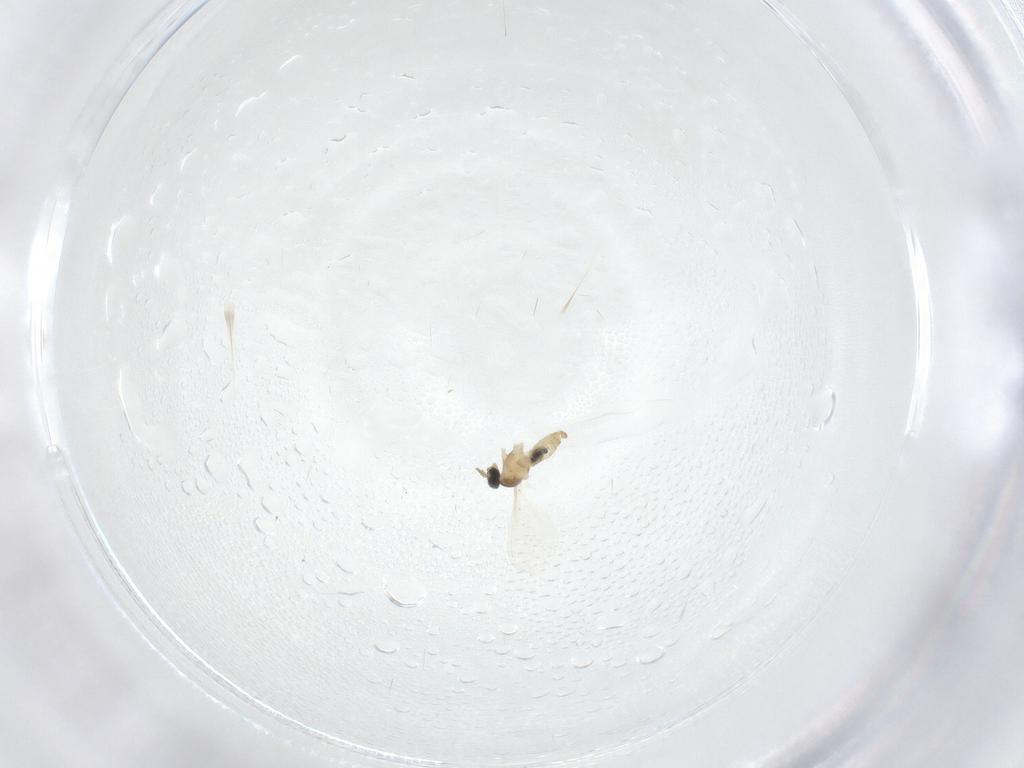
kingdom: Animalia
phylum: Arthropoda
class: Insecta
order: Diptera
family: Cecidomyiidae
